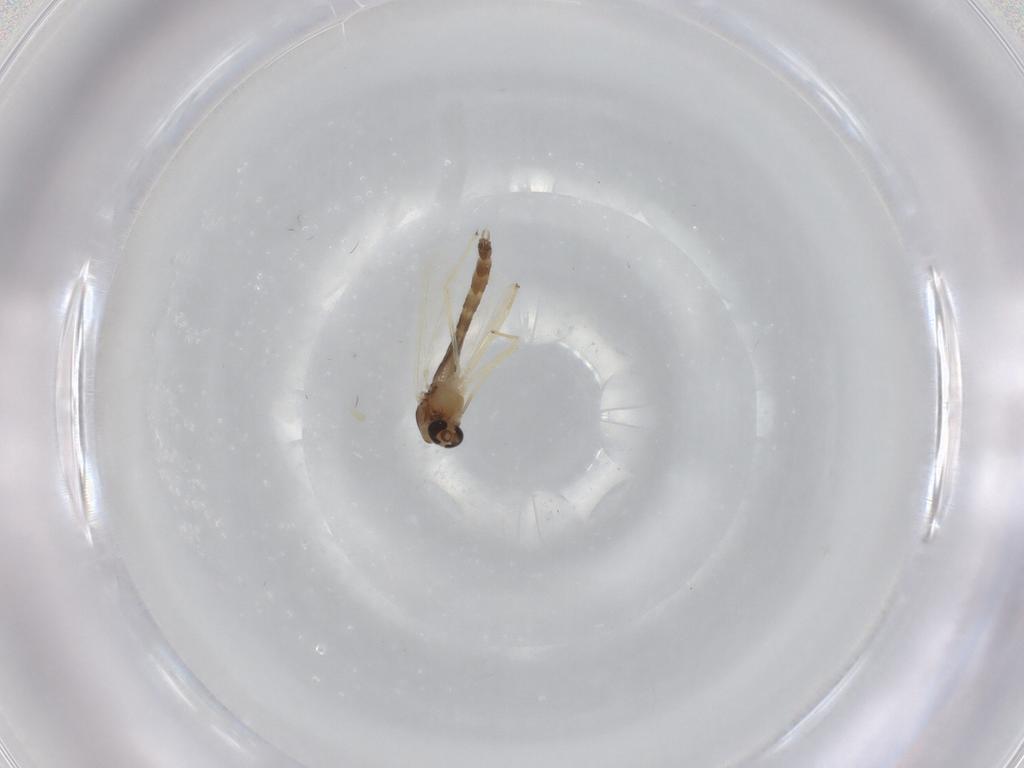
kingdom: Animalia
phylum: Arthropoda
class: Insecta
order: Diptera
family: Chironomidae
